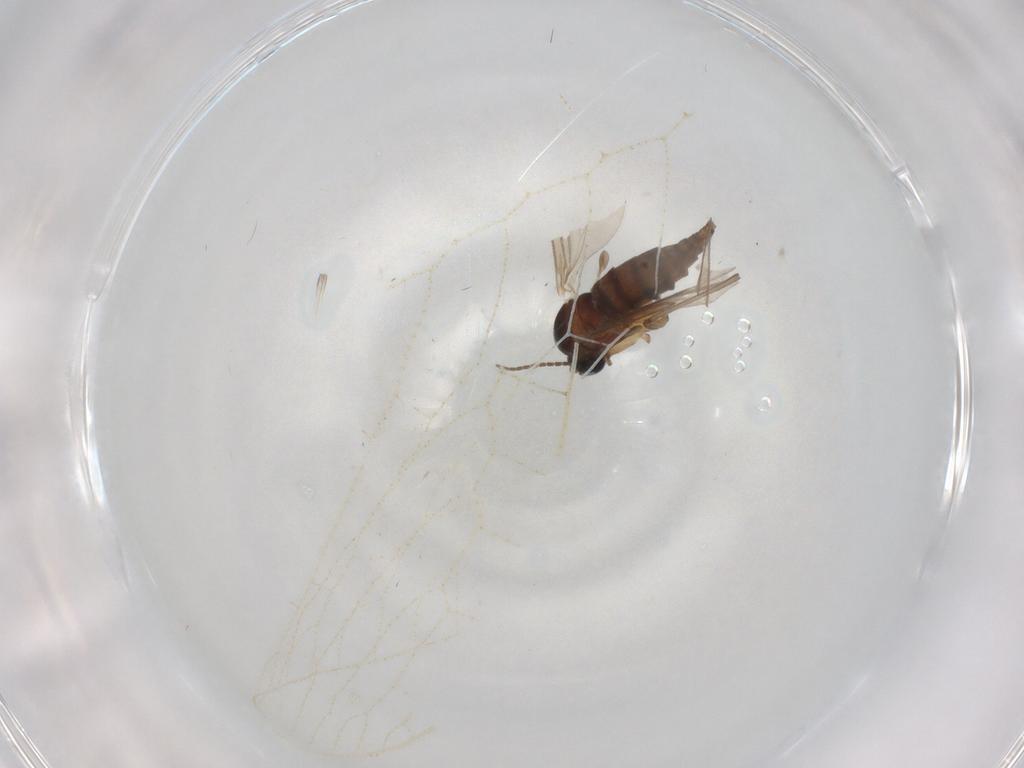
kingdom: Animalia
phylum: Arthropoda
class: Insecta
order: Diptera
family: Sciaridae
